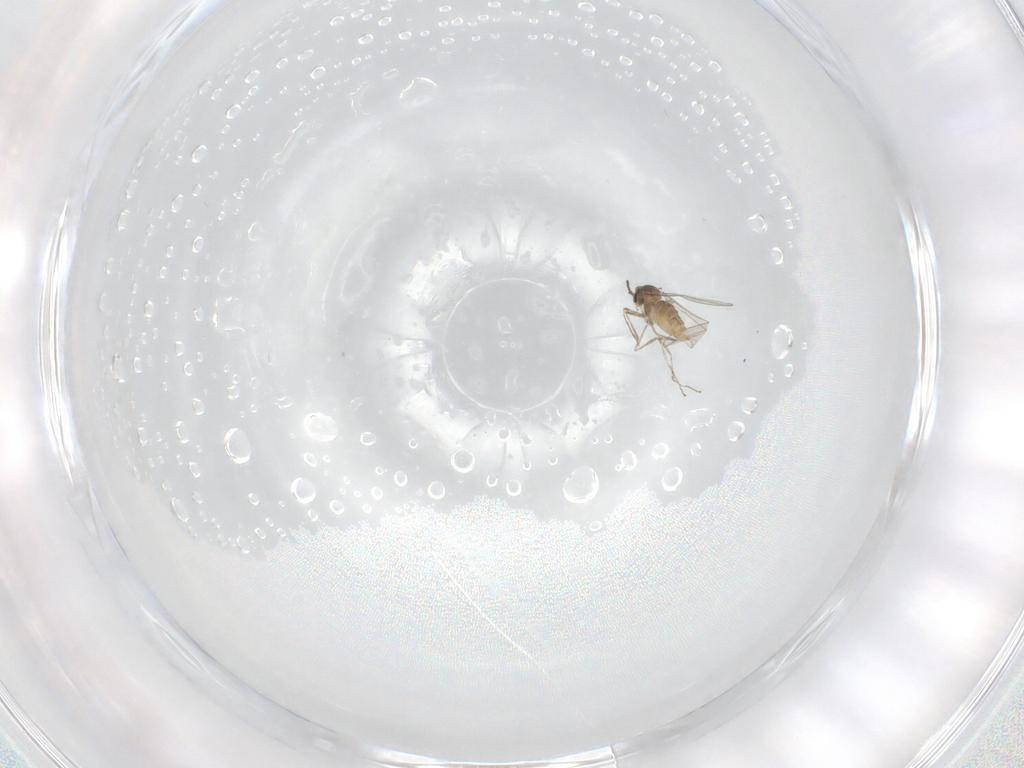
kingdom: Animalia
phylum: Arthropoda
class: Insecta
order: Diptera
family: Cecidomyiidae
